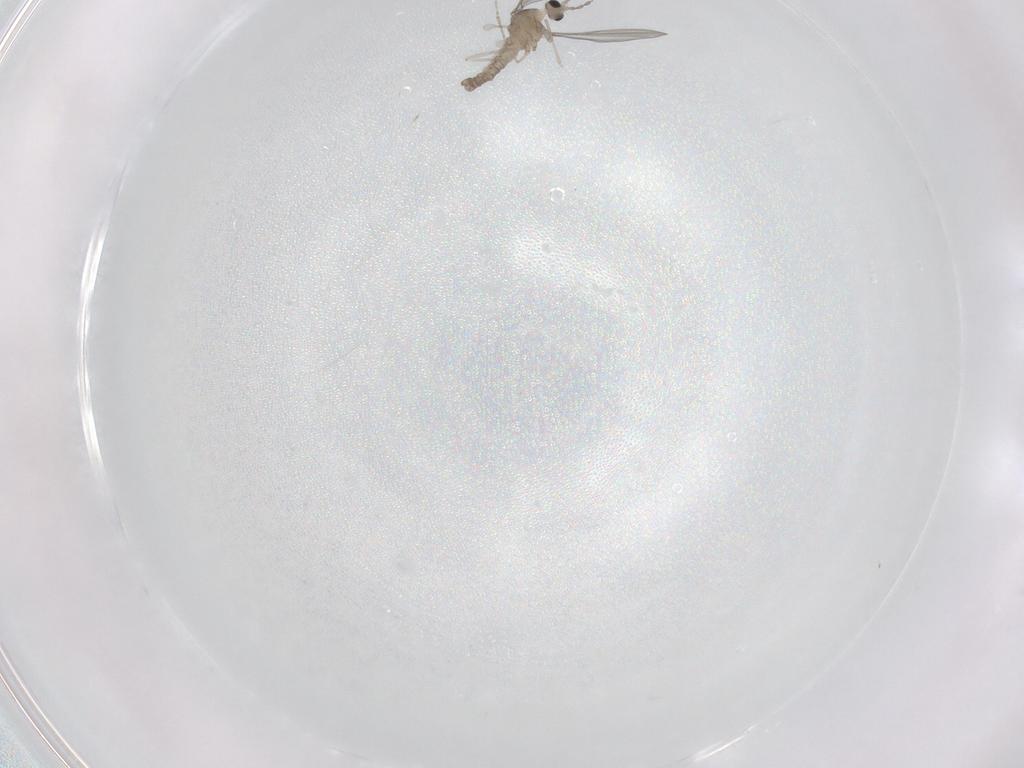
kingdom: Animalia
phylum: Arthropoda
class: Insecta
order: Diptera
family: Cecidomyiidae
